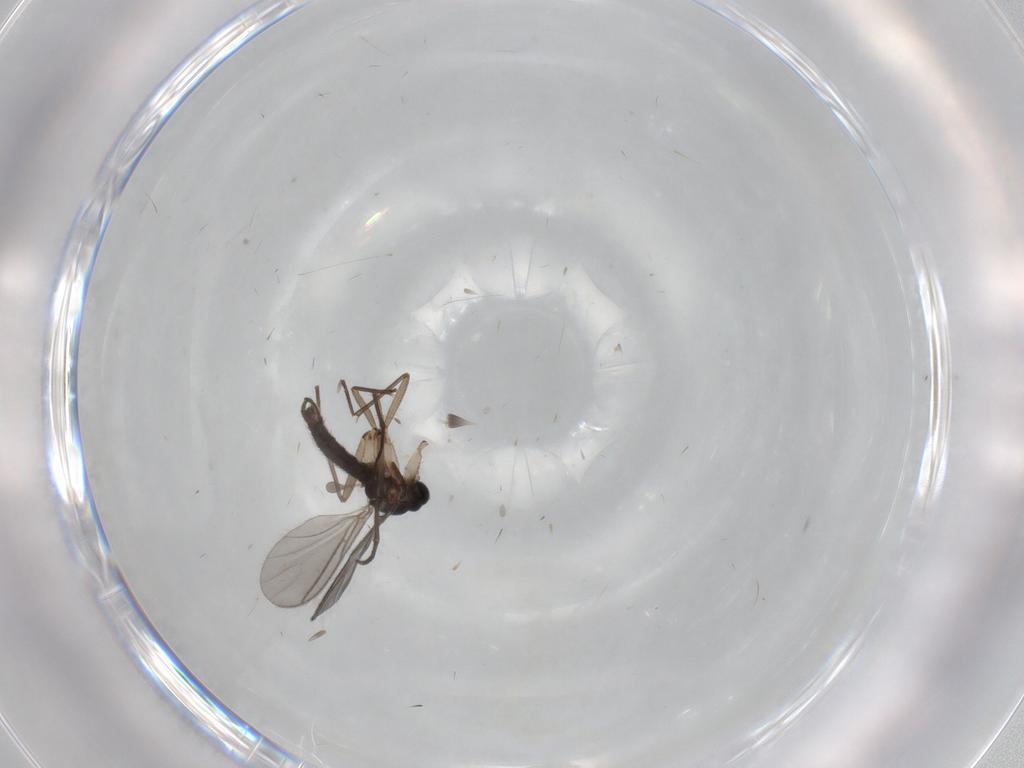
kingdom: Animalia
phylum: Arthropoda
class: Insecta
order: Diptera
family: Sciaridae
